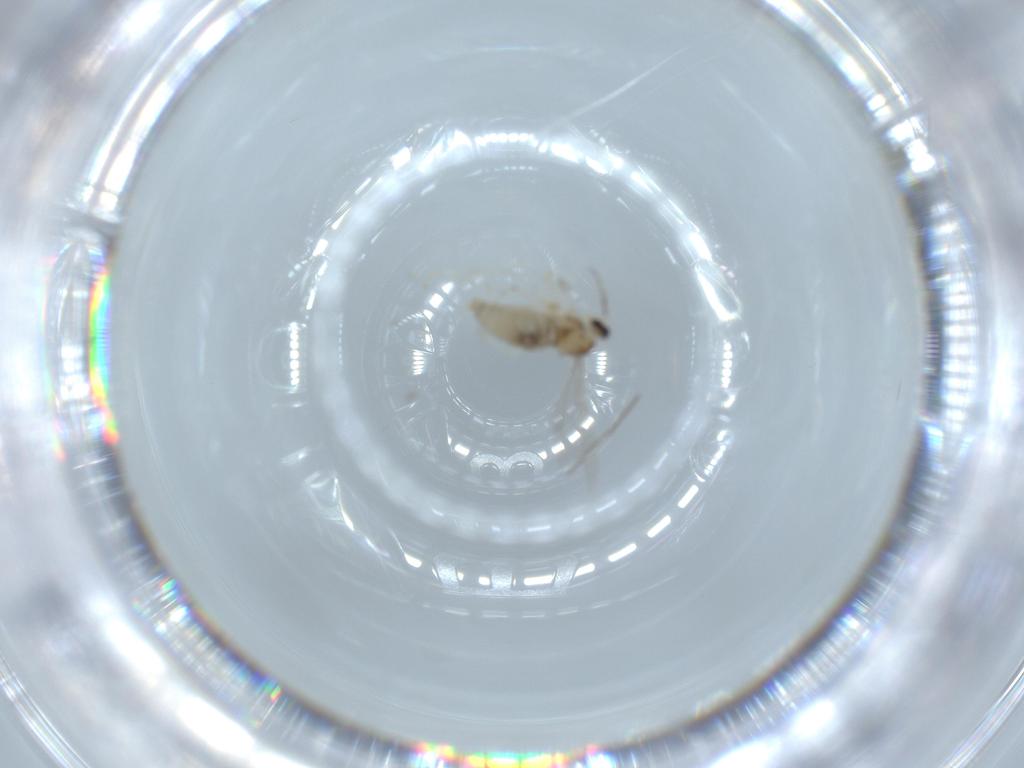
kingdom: Animalia
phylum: Arthropoda
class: Insecta
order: Diptera
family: Cecidomyiidae
